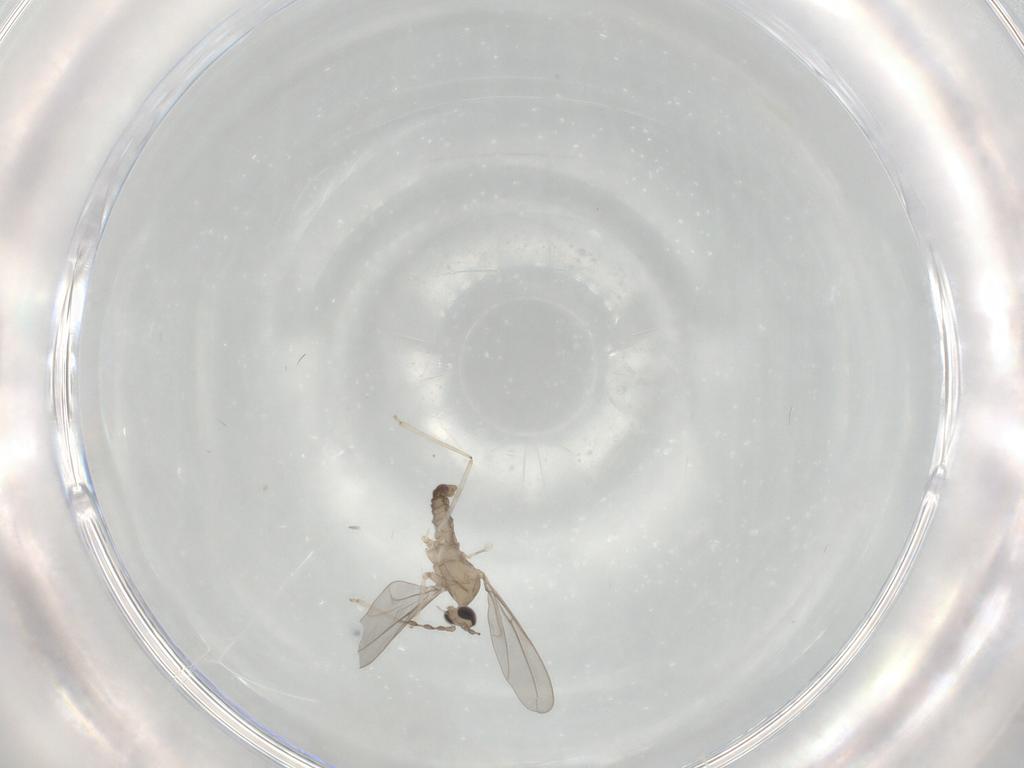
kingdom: Animalia
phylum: Arthropoda
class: Insecta
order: Diptera
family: Cecidomyiidae
